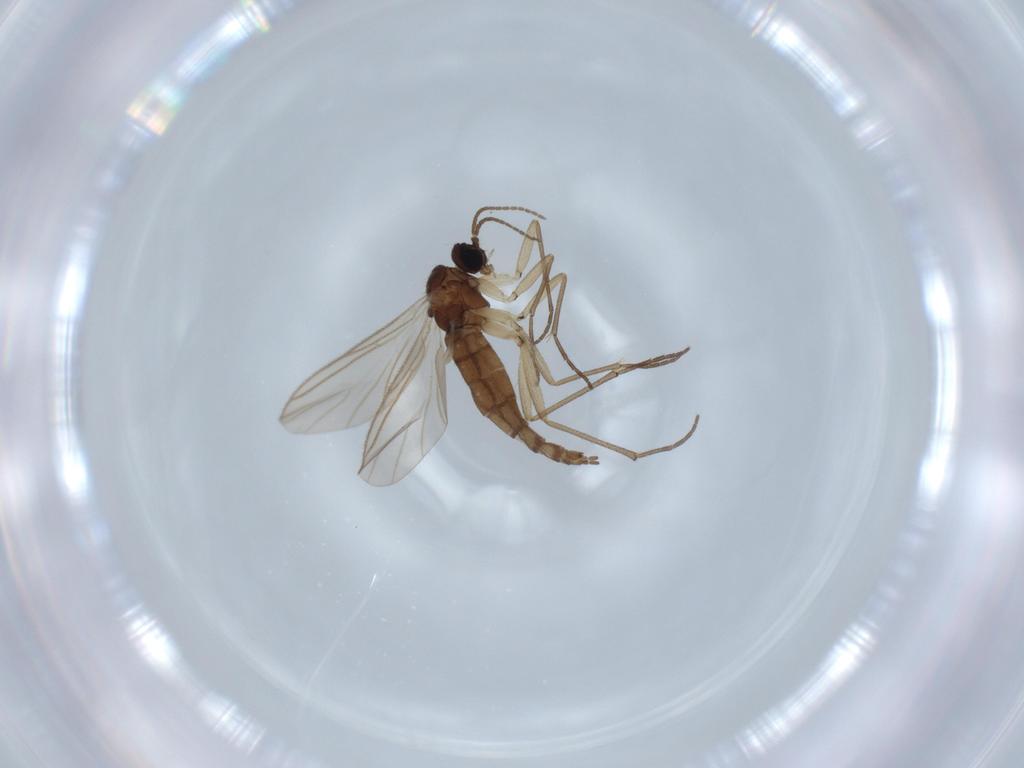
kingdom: Animalia
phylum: Arthropoda
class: Insecta
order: Diptera
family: Sciaridae
